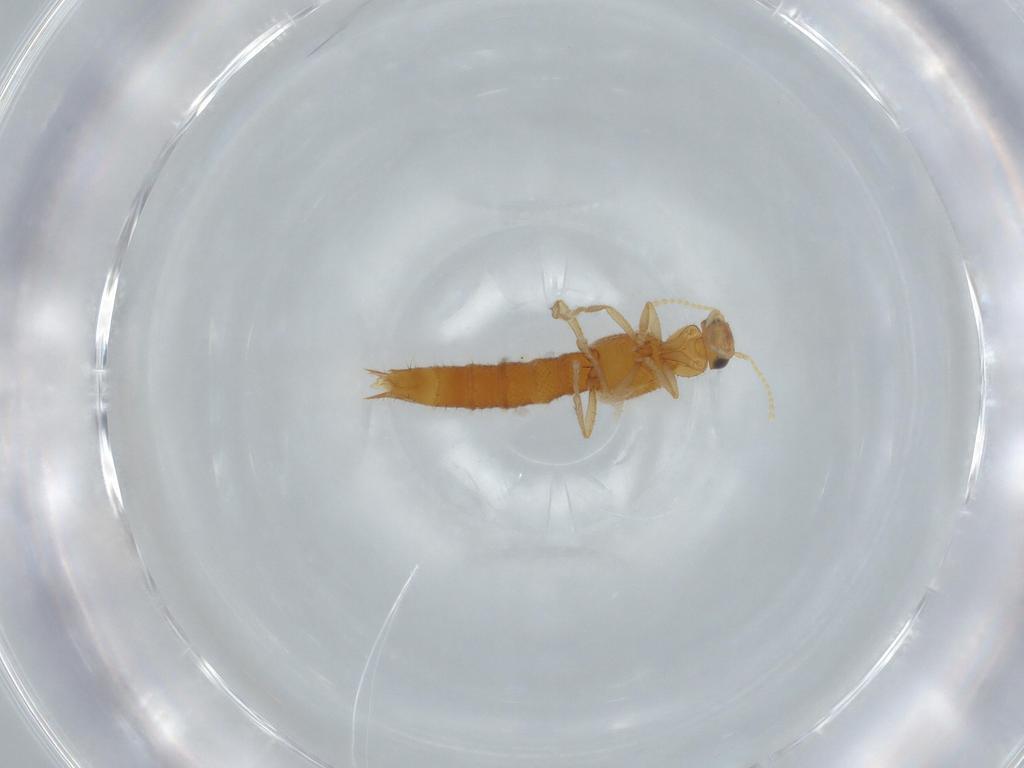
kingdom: Animalia
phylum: Arthropoda
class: Insecta
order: Coleoptera
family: Staphylinidae
